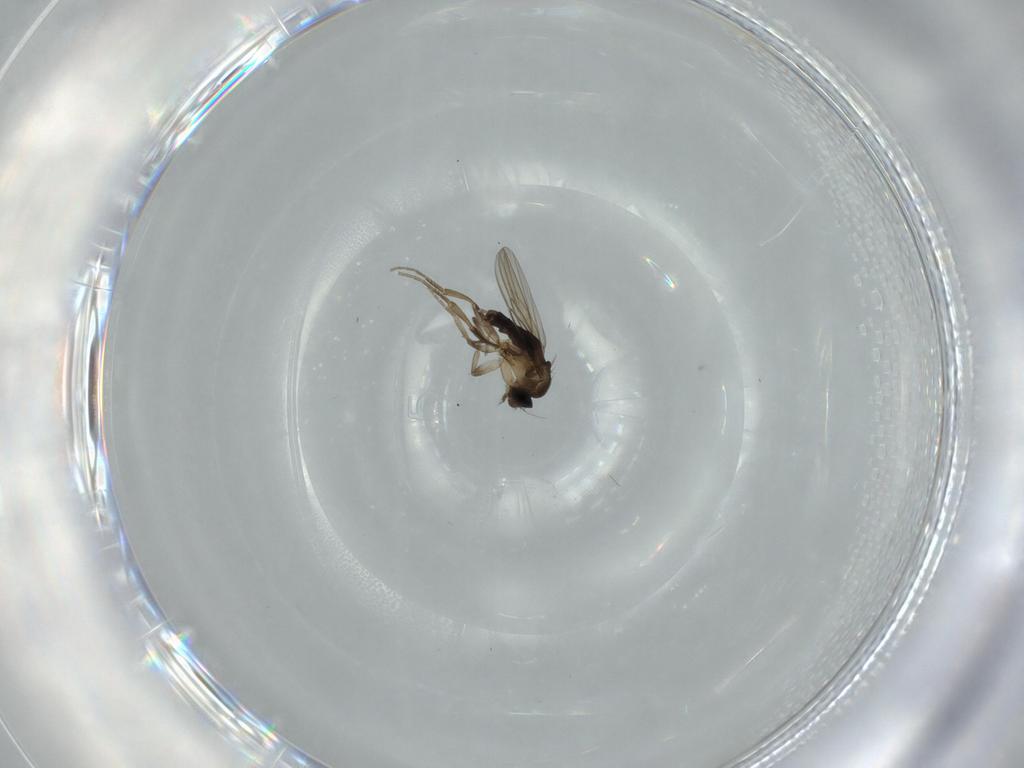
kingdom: Animalia
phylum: Arthropoda
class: Insecta
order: Diptera
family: Phoridae
